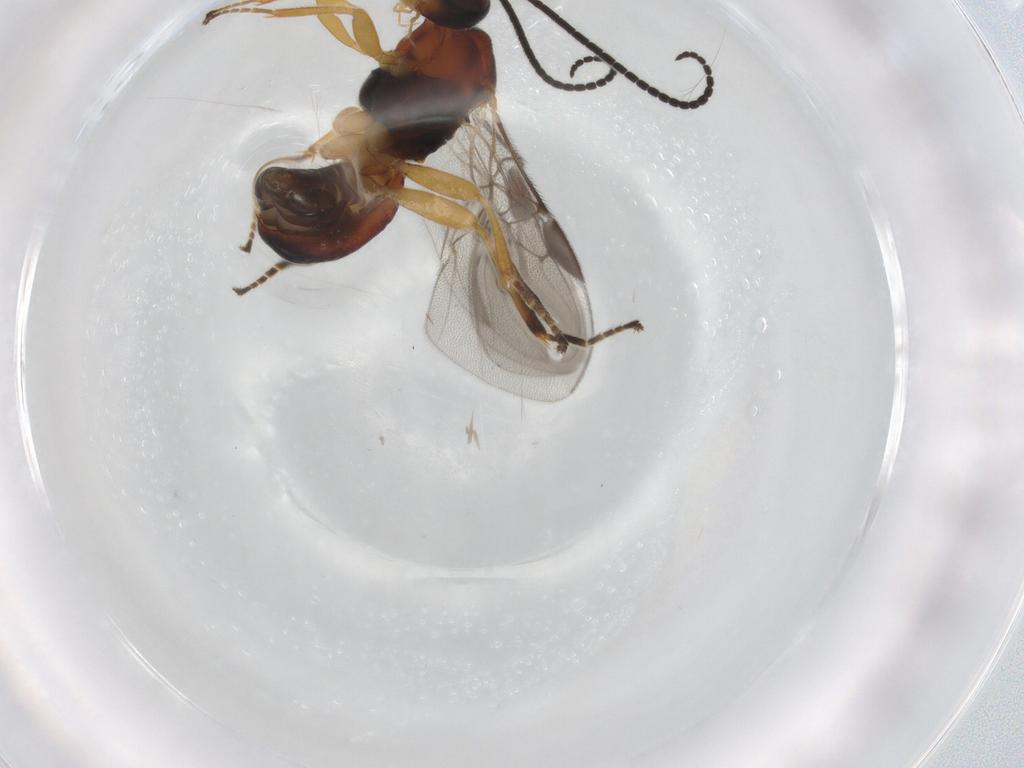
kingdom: Animalia
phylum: Arthropoda
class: Insecta
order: Hymenoptera
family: Braconidae
